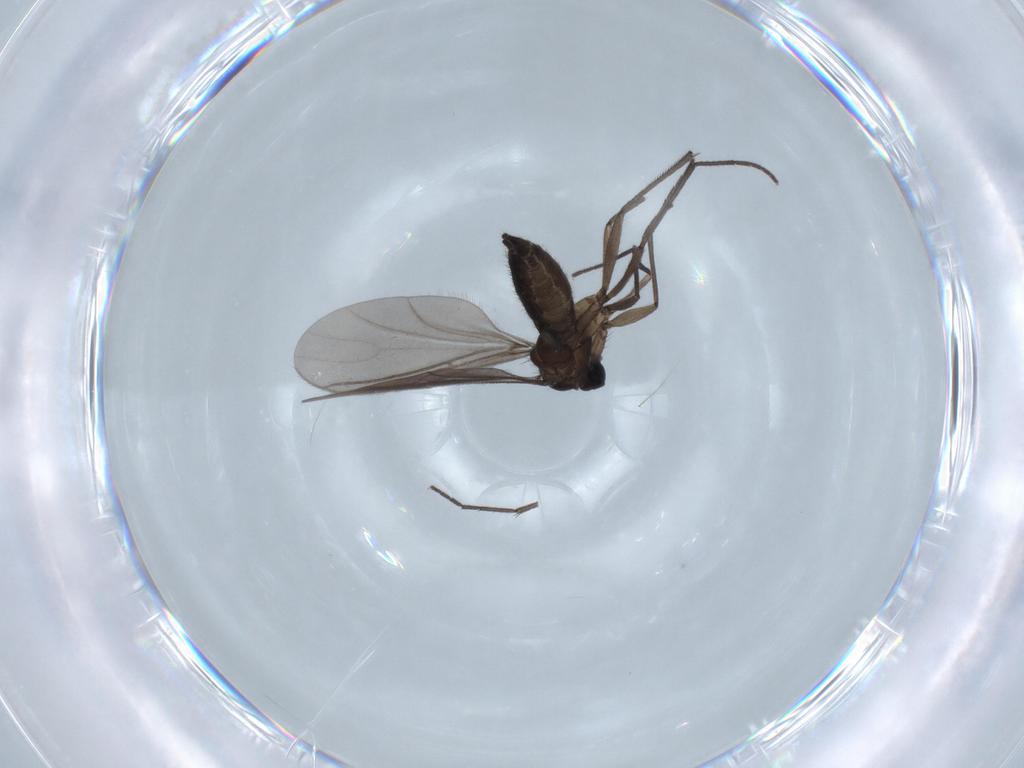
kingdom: Animalia
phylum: Arthropoda
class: Insecta
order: Diptera
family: Sciaridae
